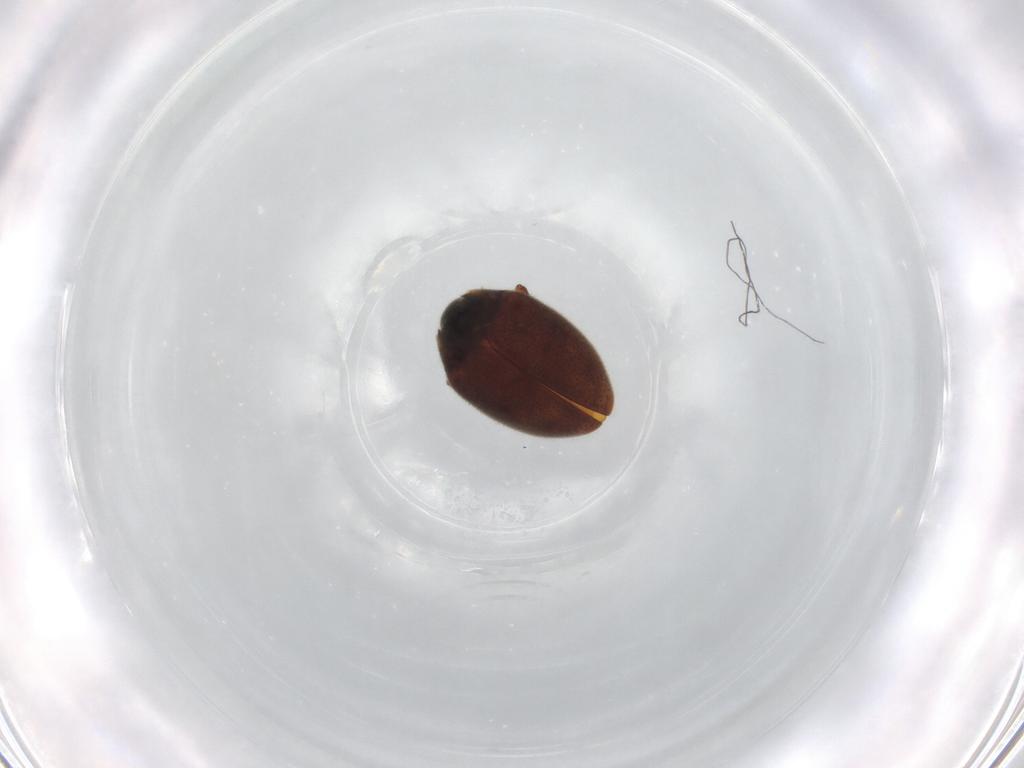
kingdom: Animalia
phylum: Arthropoda
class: Insecta
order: Coleoptera
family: Limnichidae
